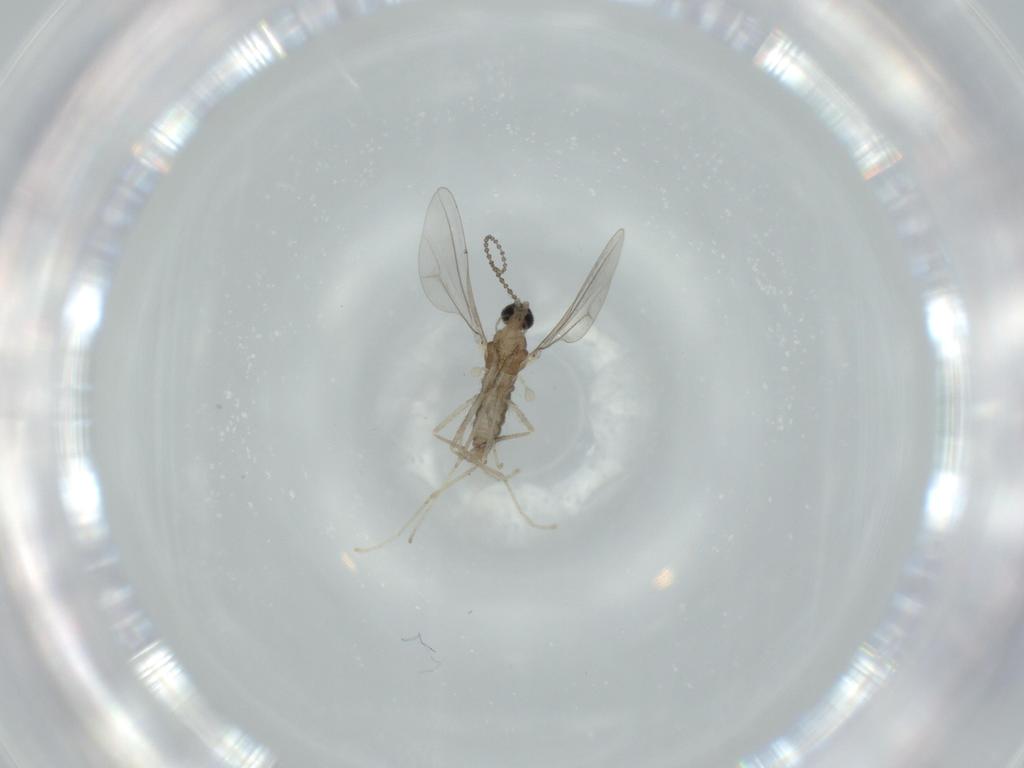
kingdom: Animalia
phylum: Arthropoda
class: Insecta
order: Diptera
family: Cecidomyiidae
